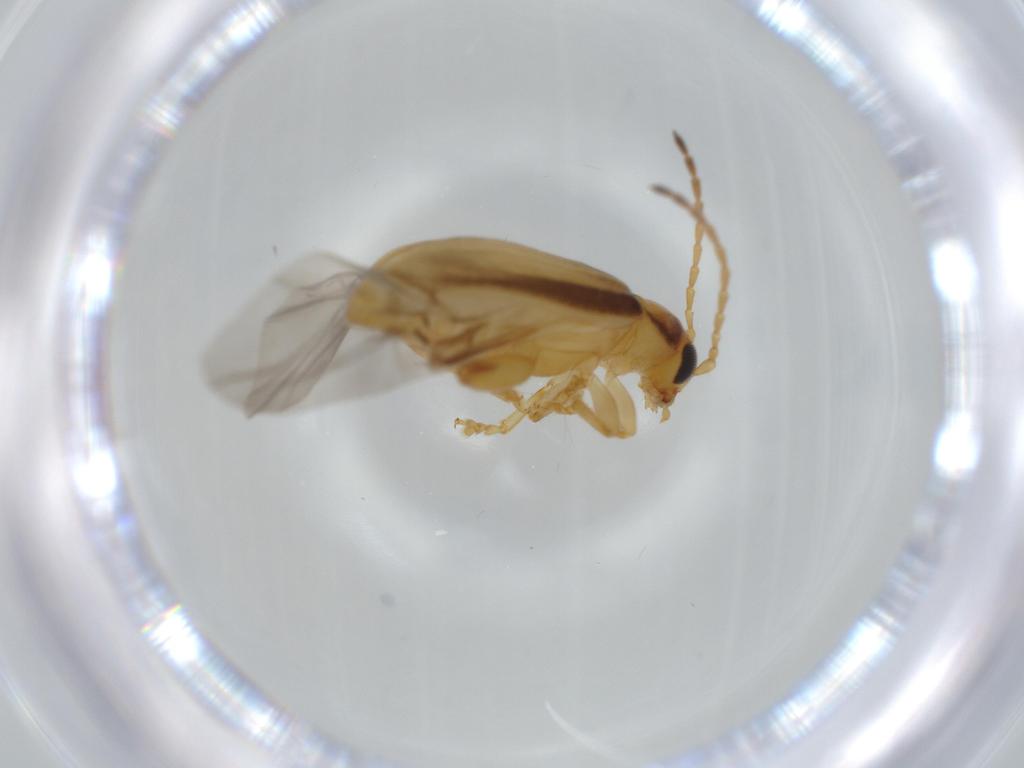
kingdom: Animalia
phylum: Arthropoda
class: Insecta
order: Coleoptera
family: Chrysomelidae
